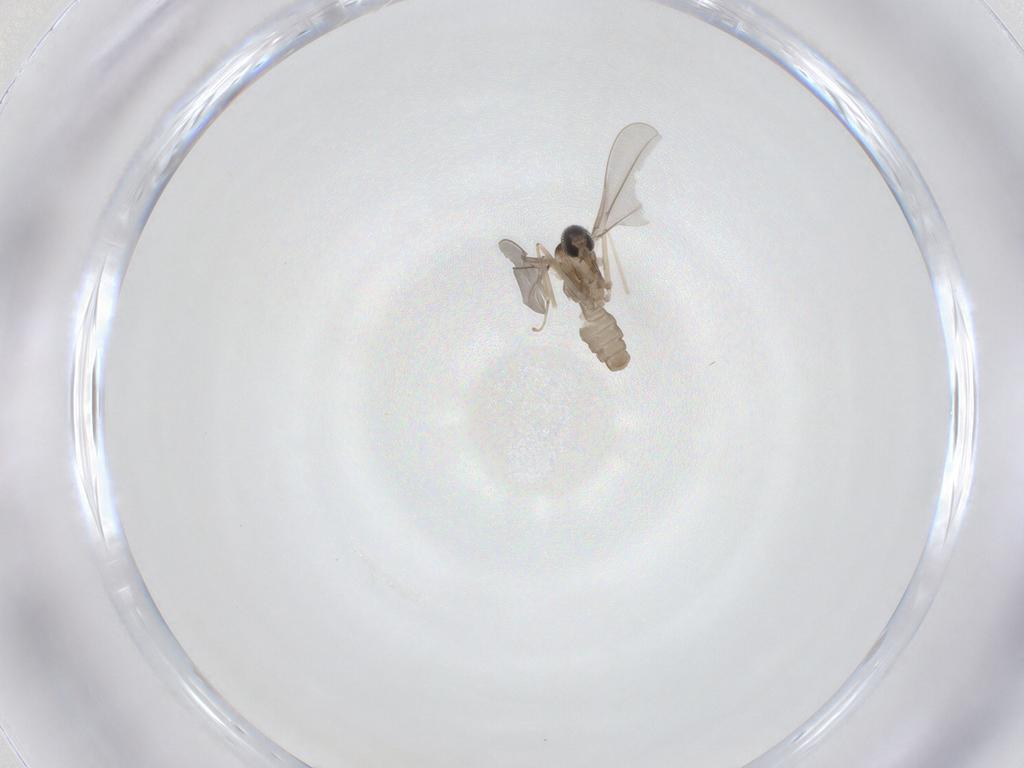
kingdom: Animalia
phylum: Arthropoda
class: Insecta
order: Diptera
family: Cecidomyiidae
